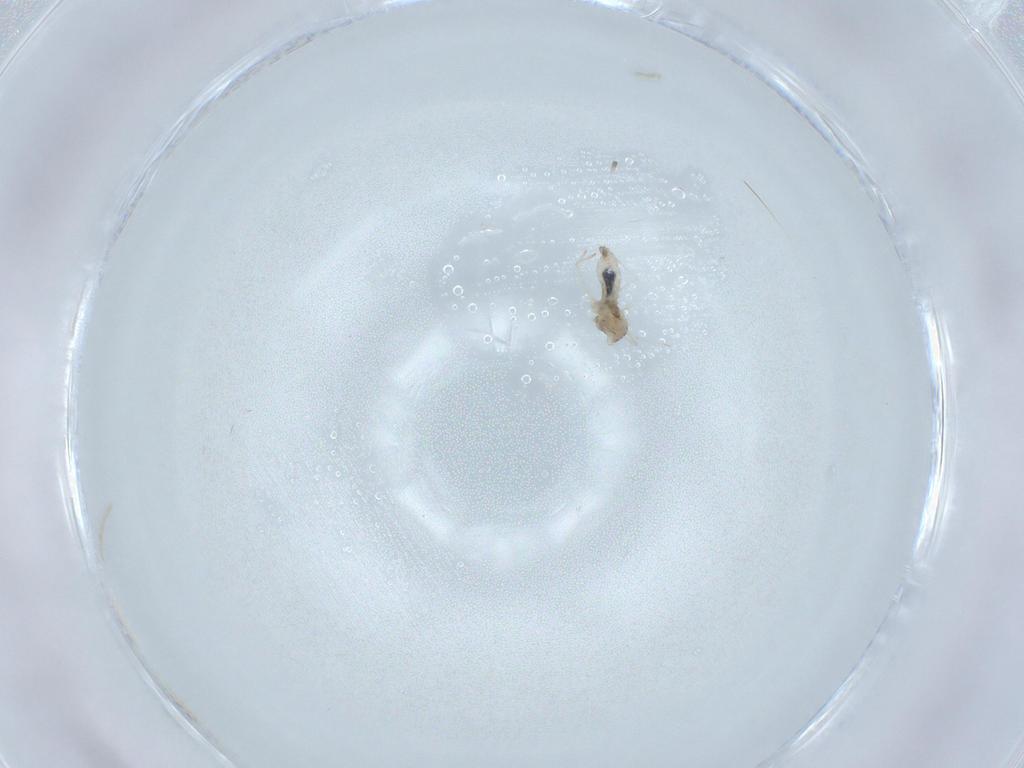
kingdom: Animalia
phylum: Arthropoda
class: Insecta
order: Diptera
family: Cecidomyiidae
